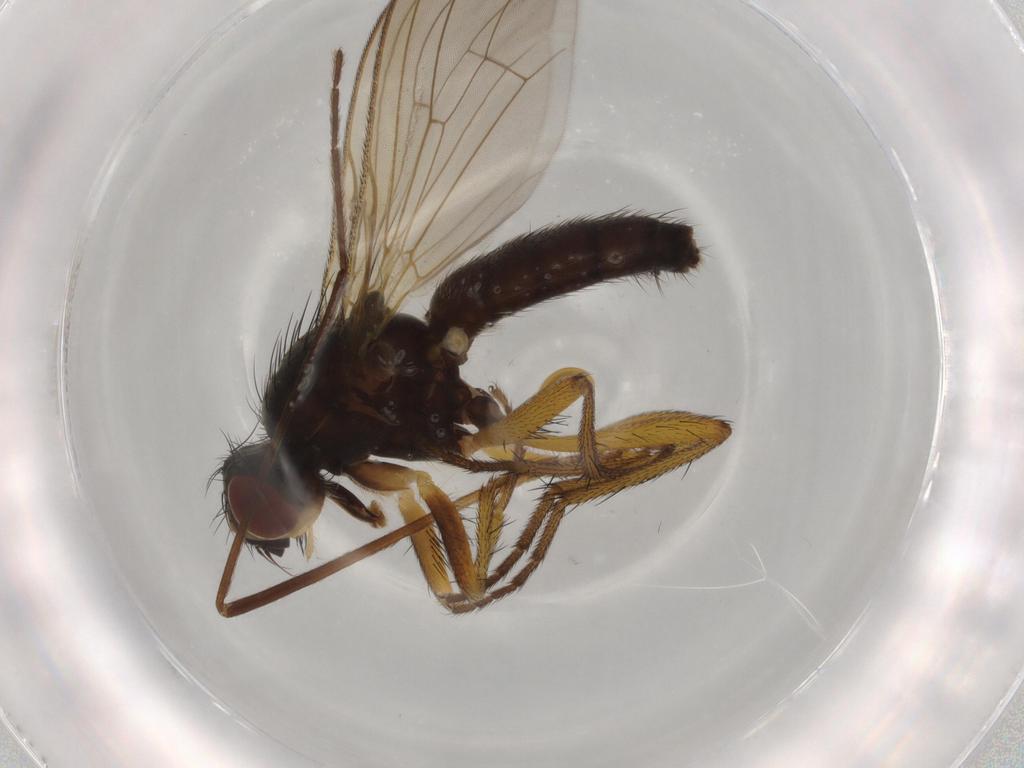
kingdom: Animalia
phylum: Arthropoda
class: Insecta
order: Diptera
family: Scathophagidae
